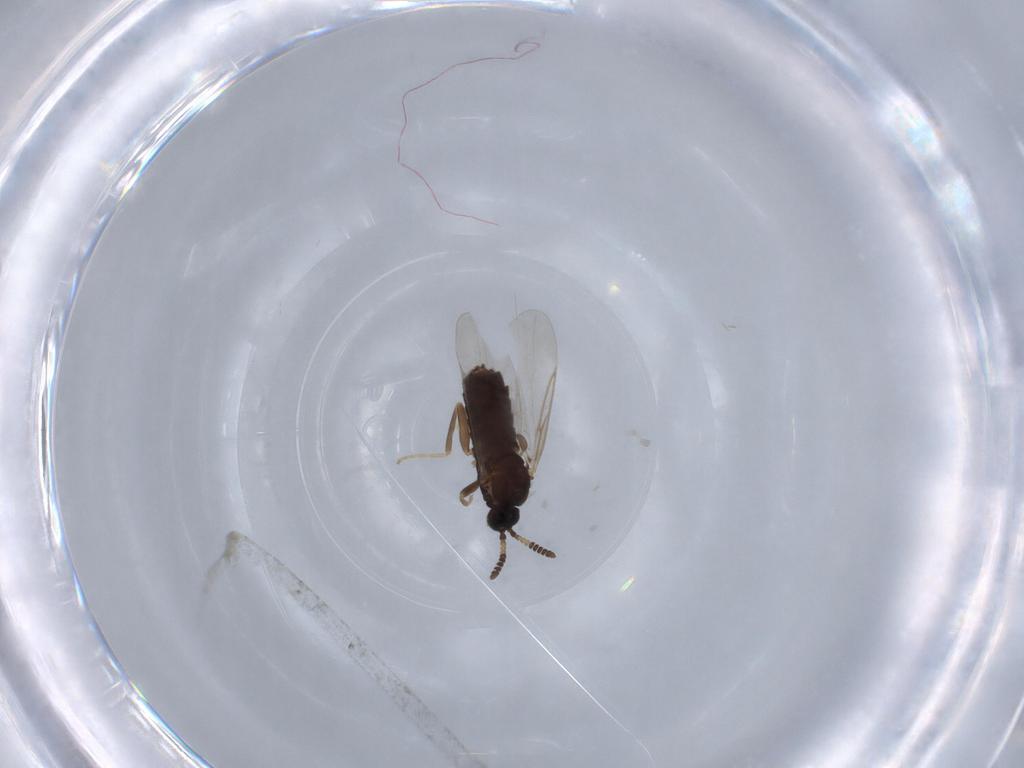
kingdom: Animalia
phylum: Arthropoda
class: Insecta
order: Diptera
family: Hybotidae
